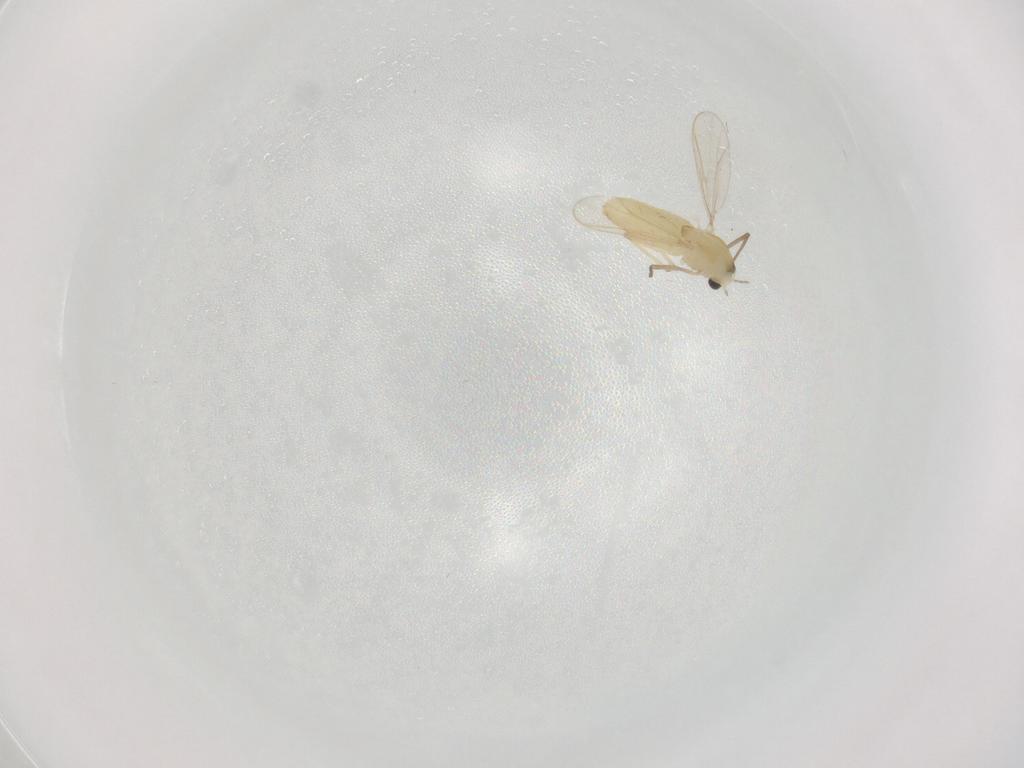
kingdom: Animalia
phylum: Arthropoda
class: Insecta
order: Diptera
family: Chironomidae
